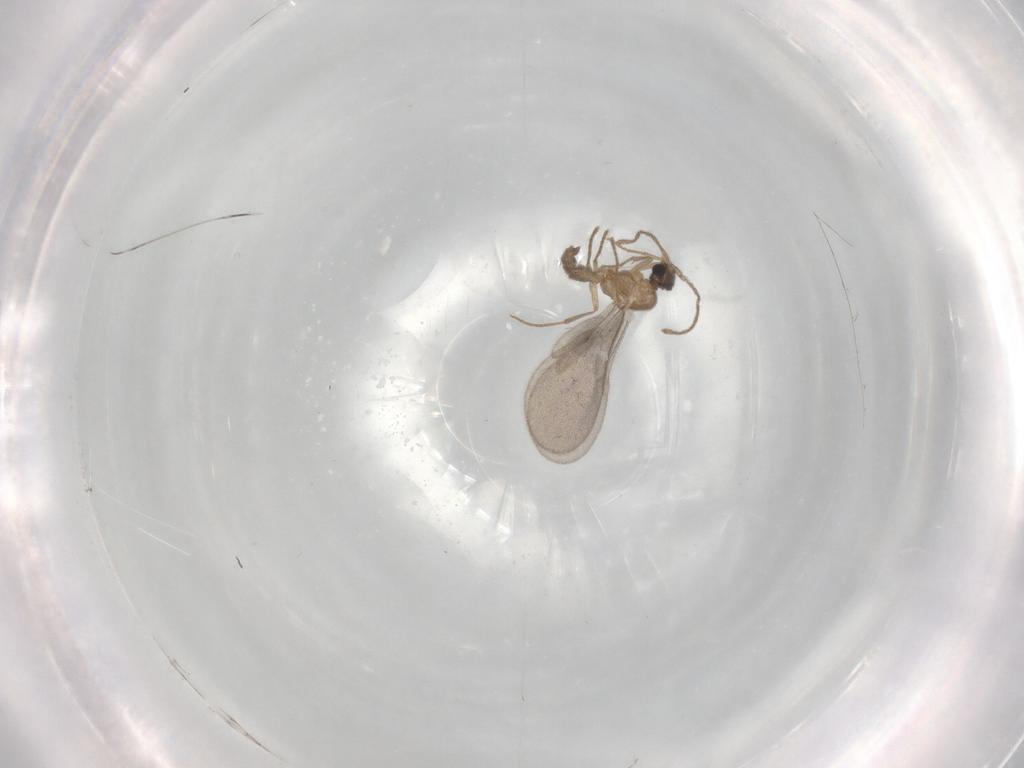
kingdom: Animalia
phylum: Arthropoda
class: Insecta
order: Hymenoptera
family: Formicidae
